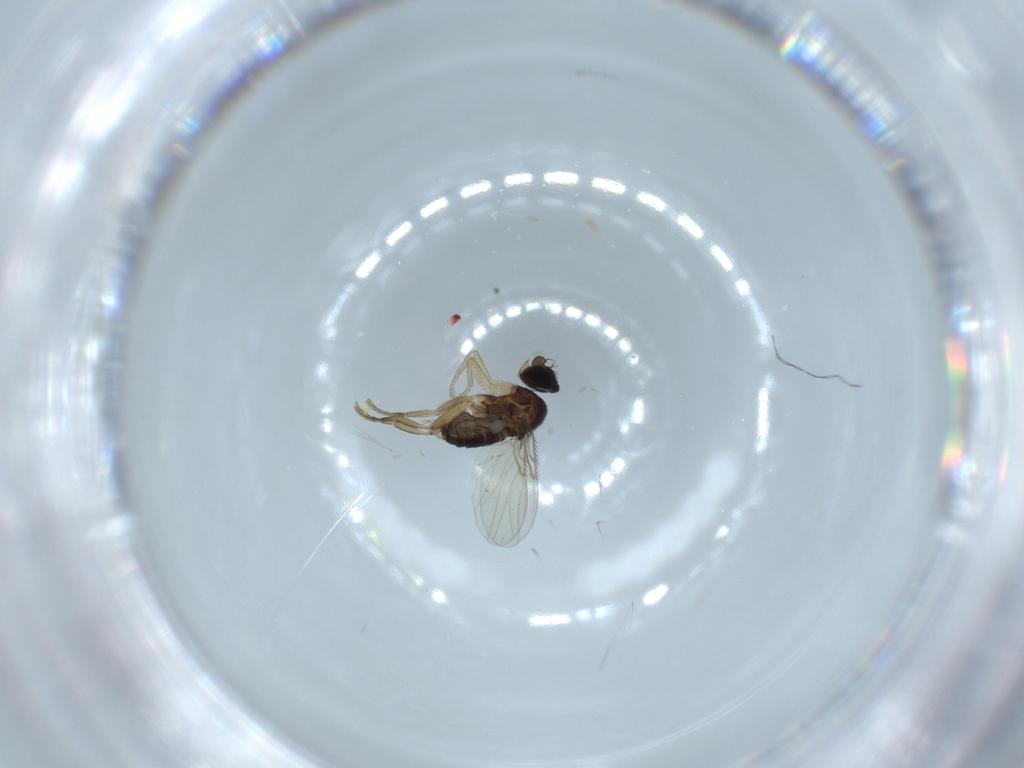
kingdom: Animalia
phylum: Arthropoda
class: Insecta
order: Diptera
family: Phoridae
